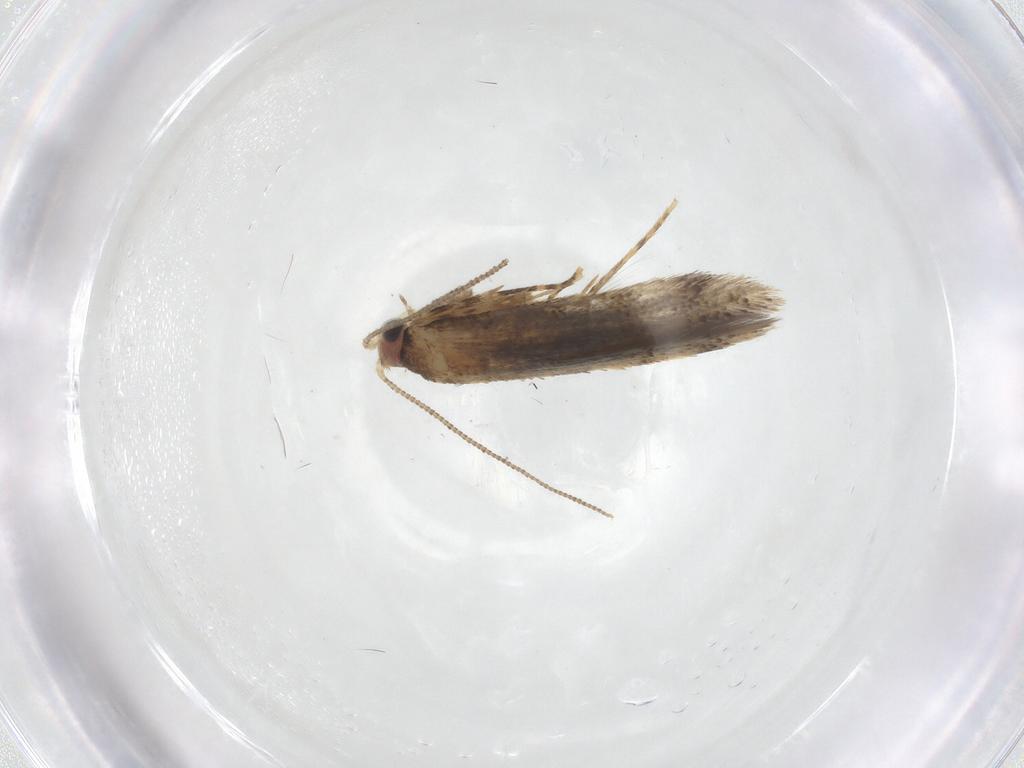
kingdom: Animalia
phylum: Arthropoda
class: Insecta
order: Lepidoptera
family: Tineidae
